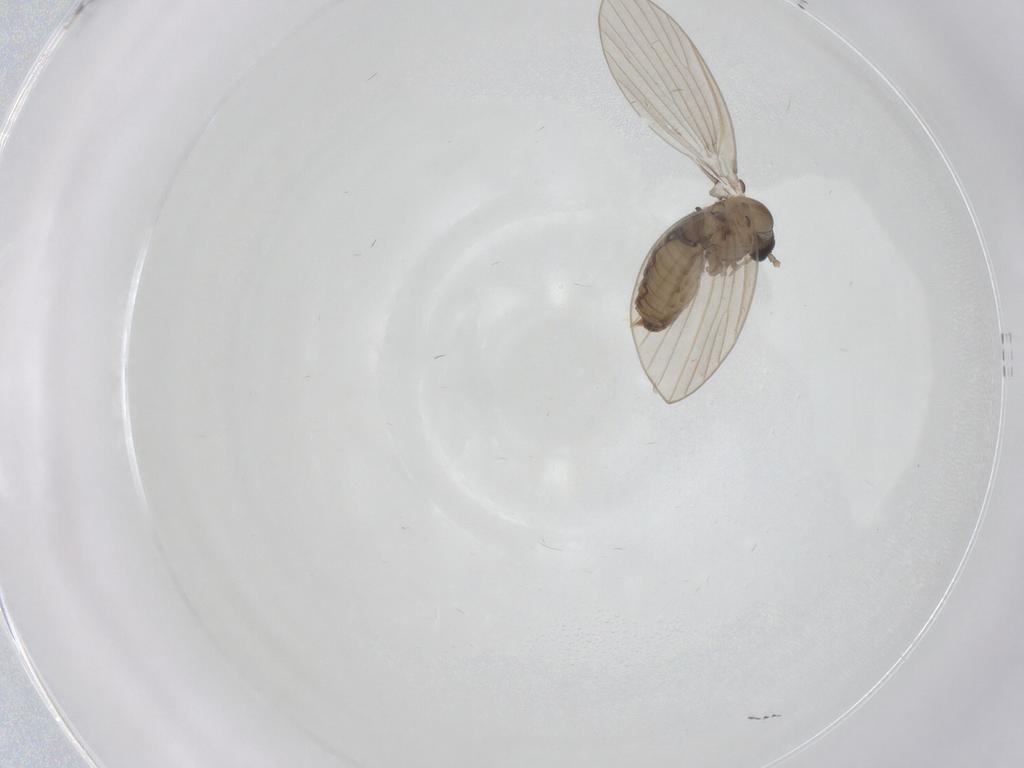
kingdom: Animalia
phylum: Arthropoda
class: Insecta
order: Diptera
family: Psychodidae
